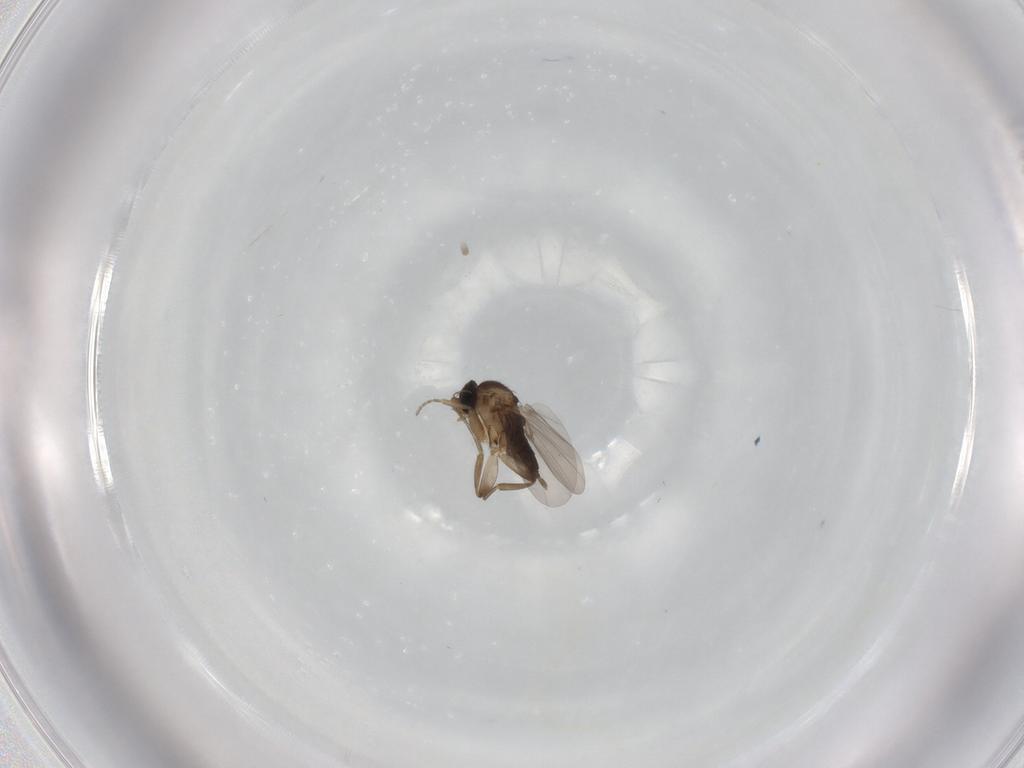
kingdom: Animalia
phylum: Arthropoda
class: Insecta
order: Diptera
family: Phoridae
